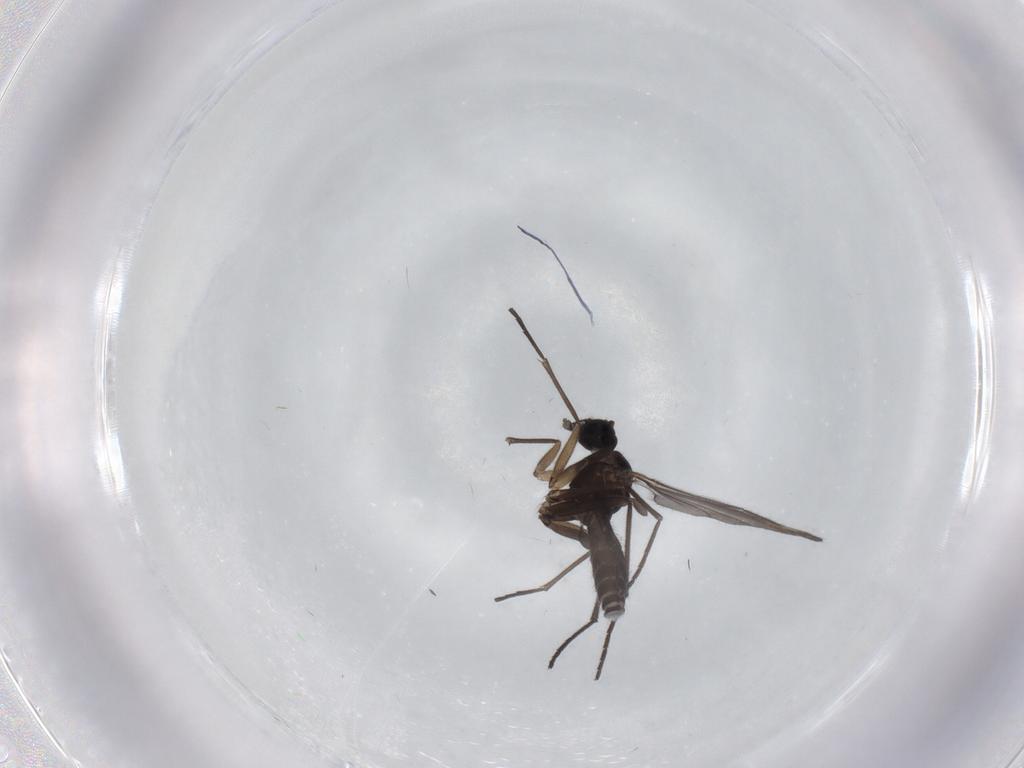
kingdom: Animalia
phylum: Arthropoda
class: Insecta
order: Diptera
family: Sciaridae
